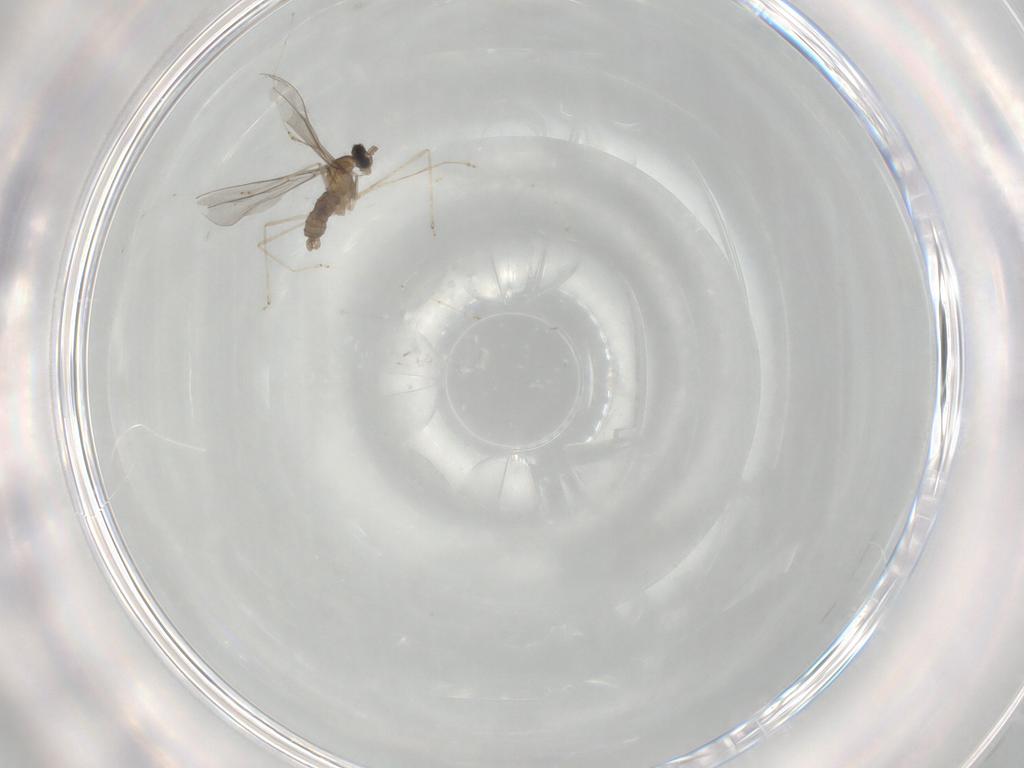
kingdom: Animalia
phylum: Arthropoda
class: Insecta
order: Diptera
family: Cecidomyiidae
